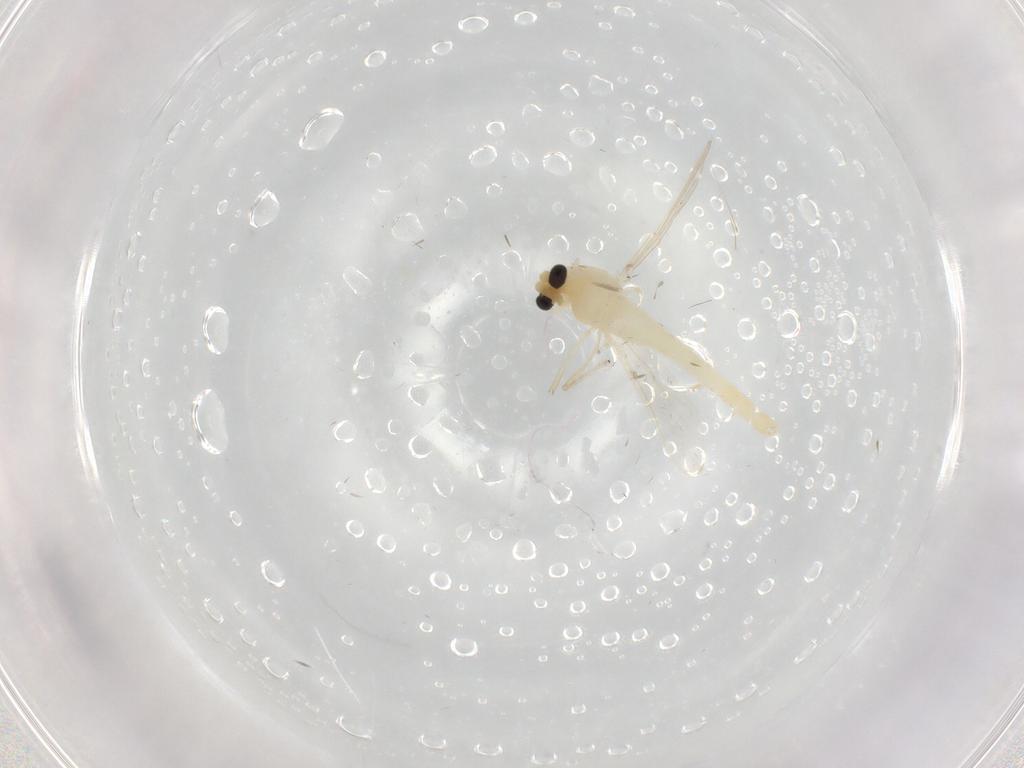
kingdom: Animalia
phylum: Arthropoda
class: Insecta
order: Diptera
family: Chironomidae
